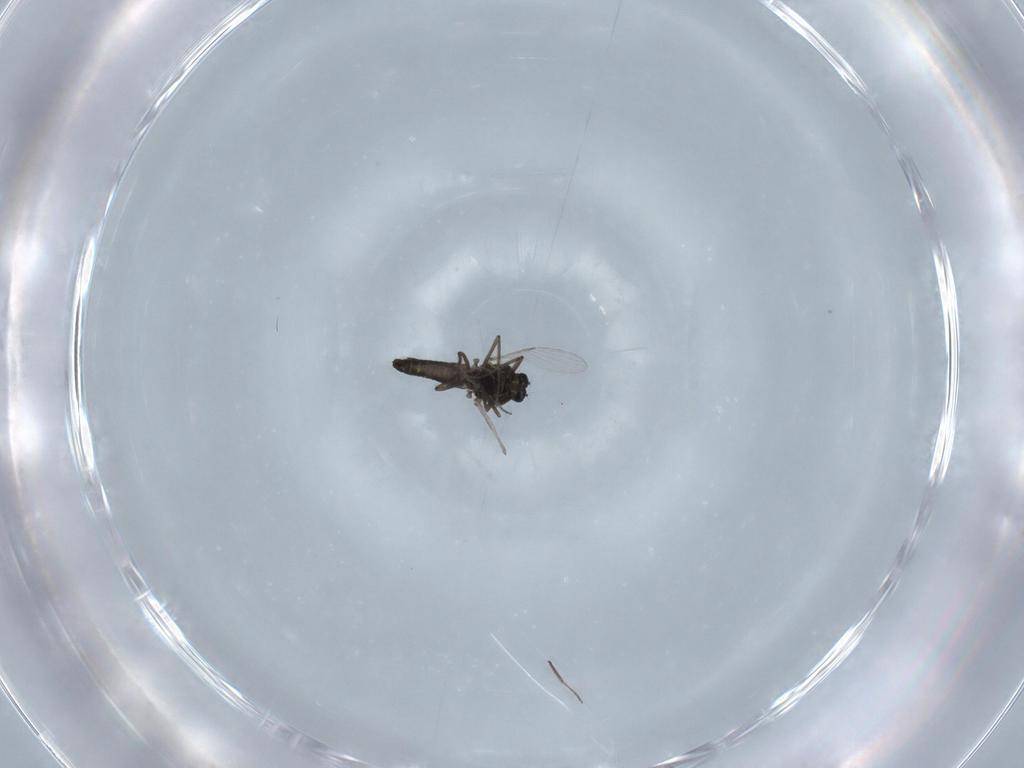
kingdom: Animalia
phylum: Arthropoda
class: Insecta
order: Diptera
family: Ceratopogonidae
